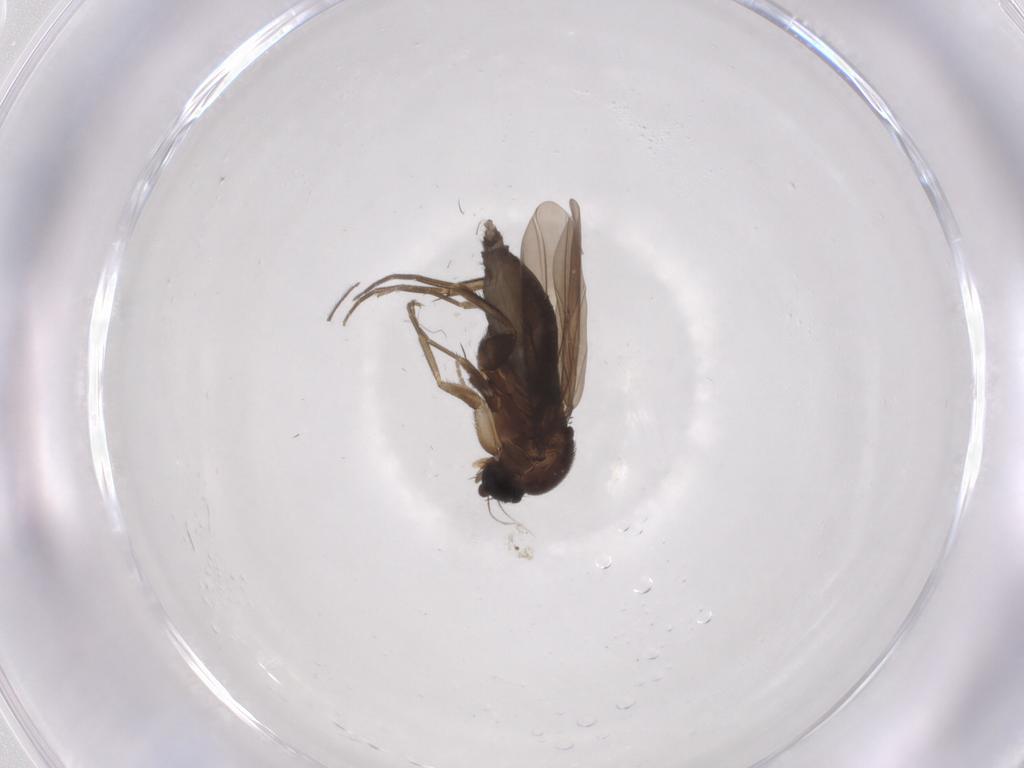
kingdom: Animalia
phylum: Arthropoda
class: Insecta
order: Diptera
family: Phoridae
